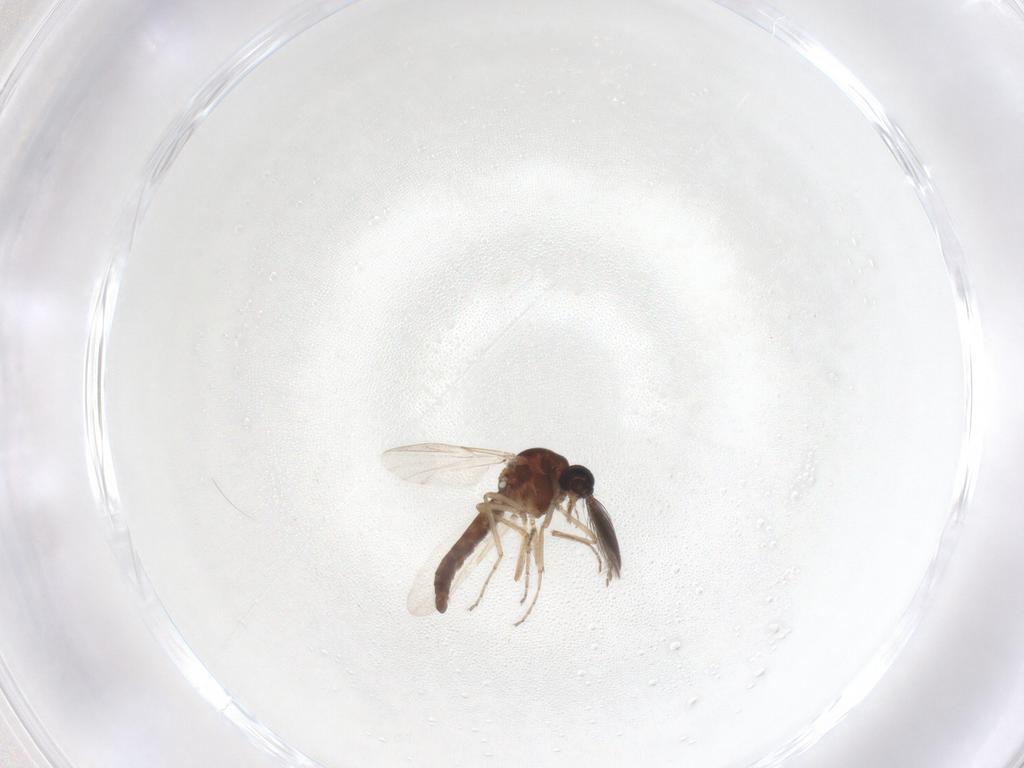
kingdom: Animalia
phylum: Arthropoda
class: Insecta
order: Diptera
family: Ceratopogonidae
